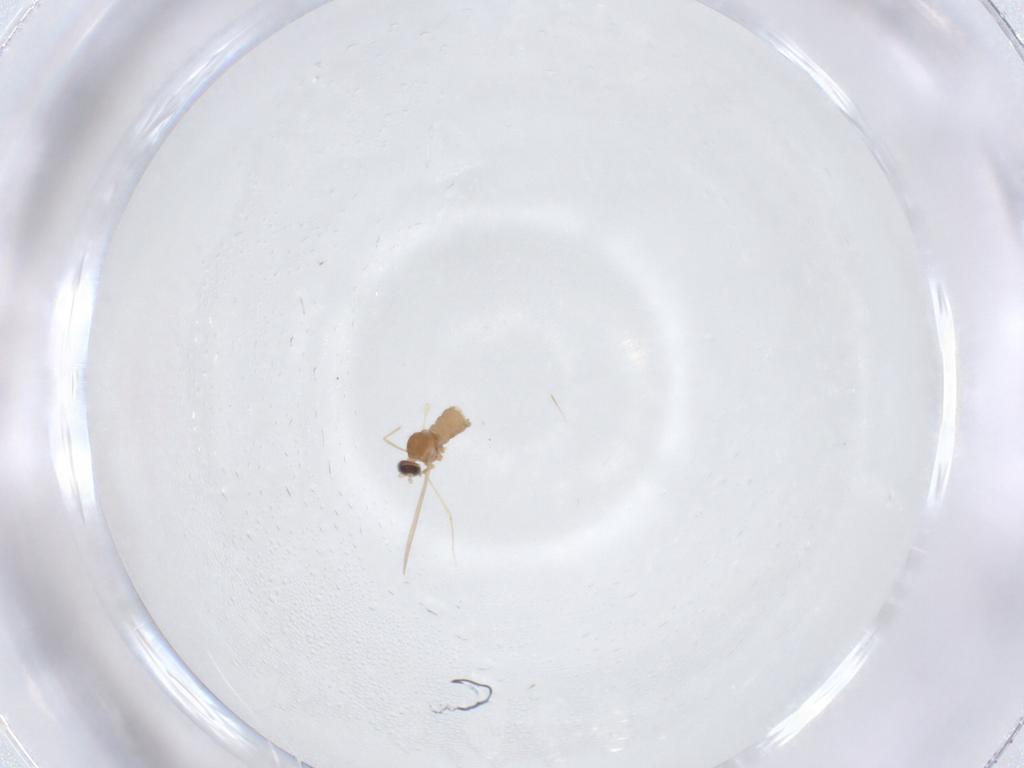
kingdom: Animalia
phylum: Arthropoda
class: Insecta
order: Diptera
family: Cecidomyiidae
